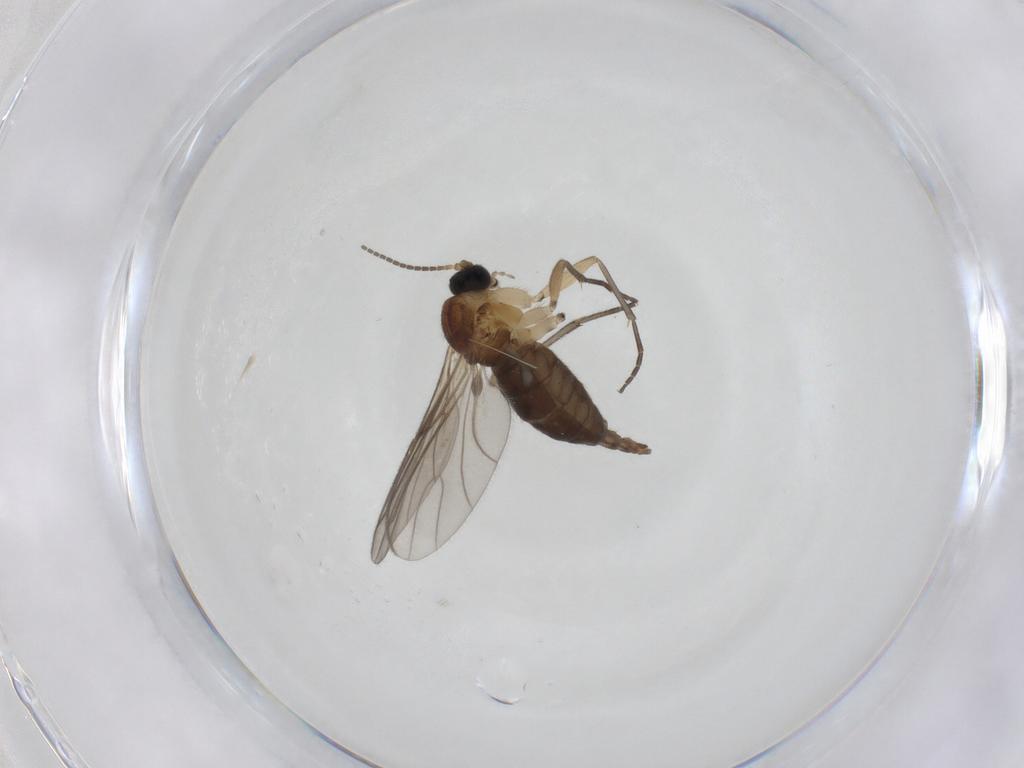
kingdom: Animalia
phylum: Arthropoda
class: Insecta
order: Diptera
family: Sciaridae
